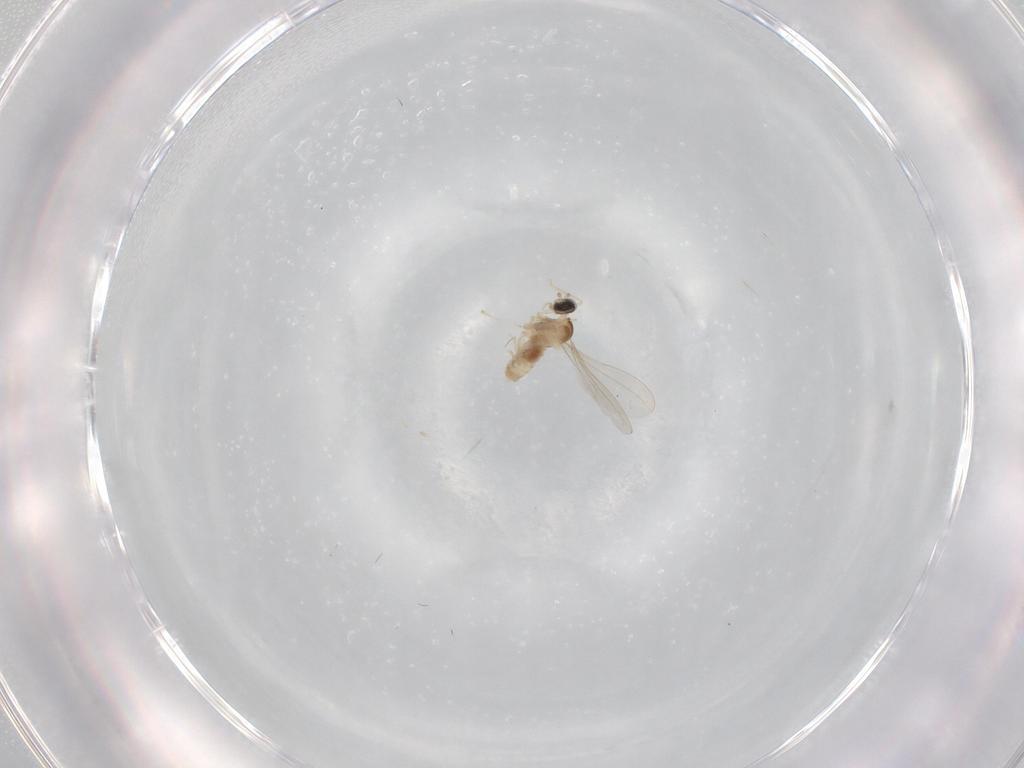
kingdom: Animalia
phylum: Arthropoda
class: Insecta
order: Diptera
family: Cecidomyiidae
